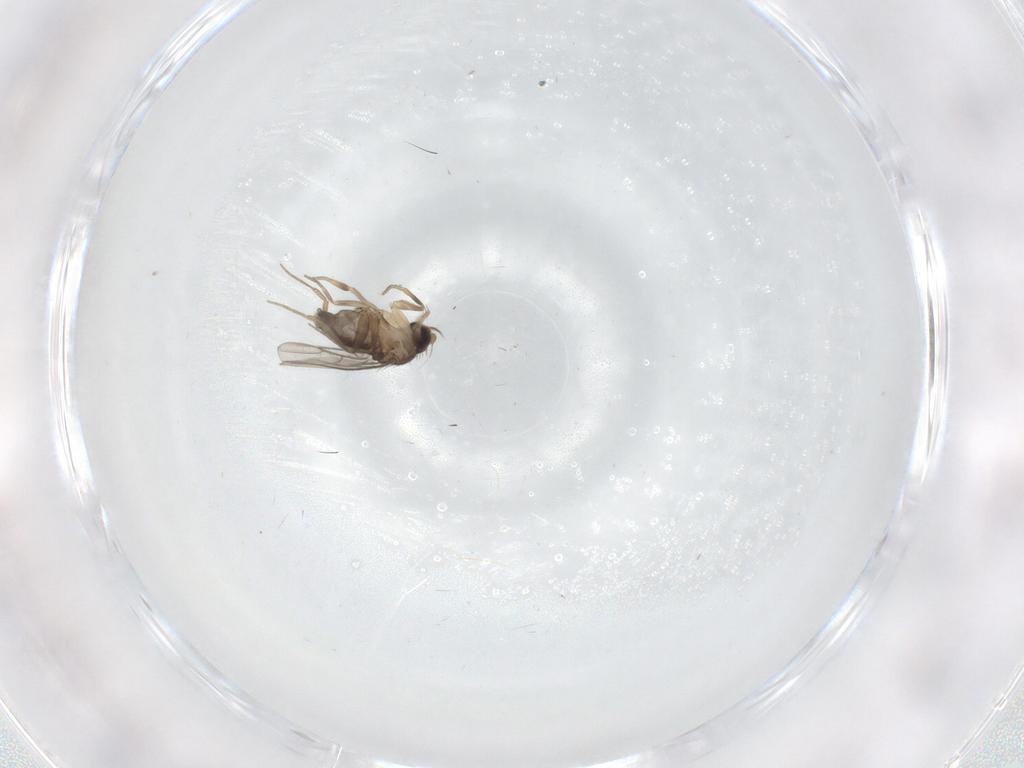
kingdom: Animalia
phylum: Arthropoda
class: Insecta
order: Diptera
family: Phoridae
